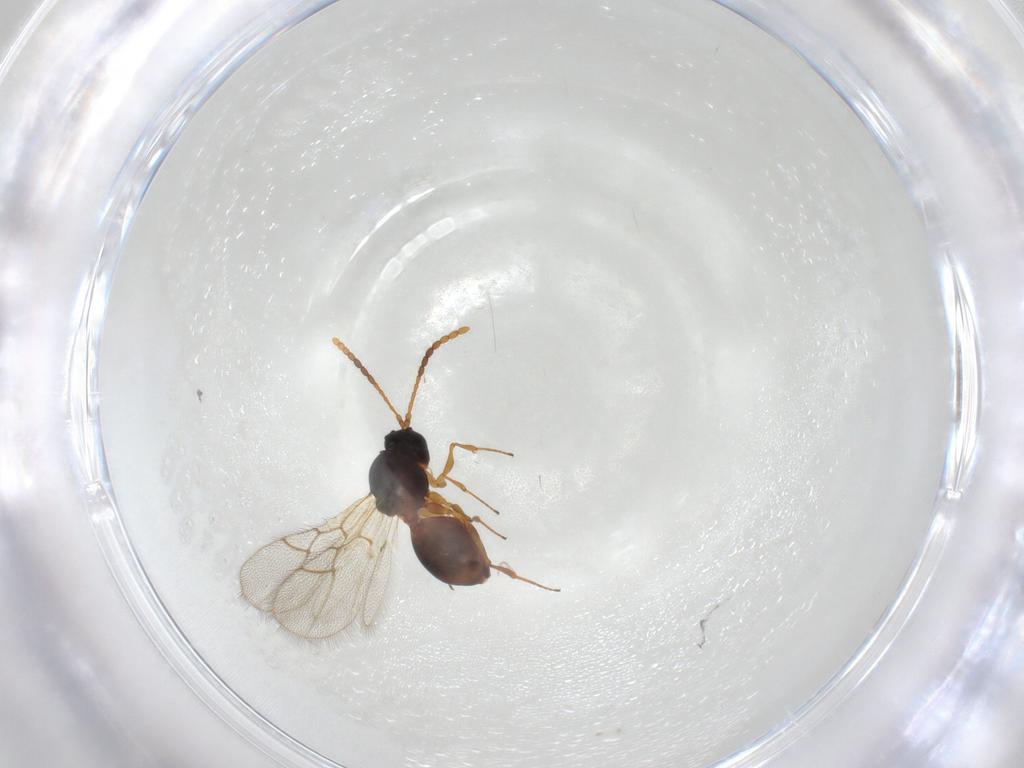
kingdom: Animalia
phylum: Arthropoda
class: Insecta
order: Hymenoptera
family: Figitidae
